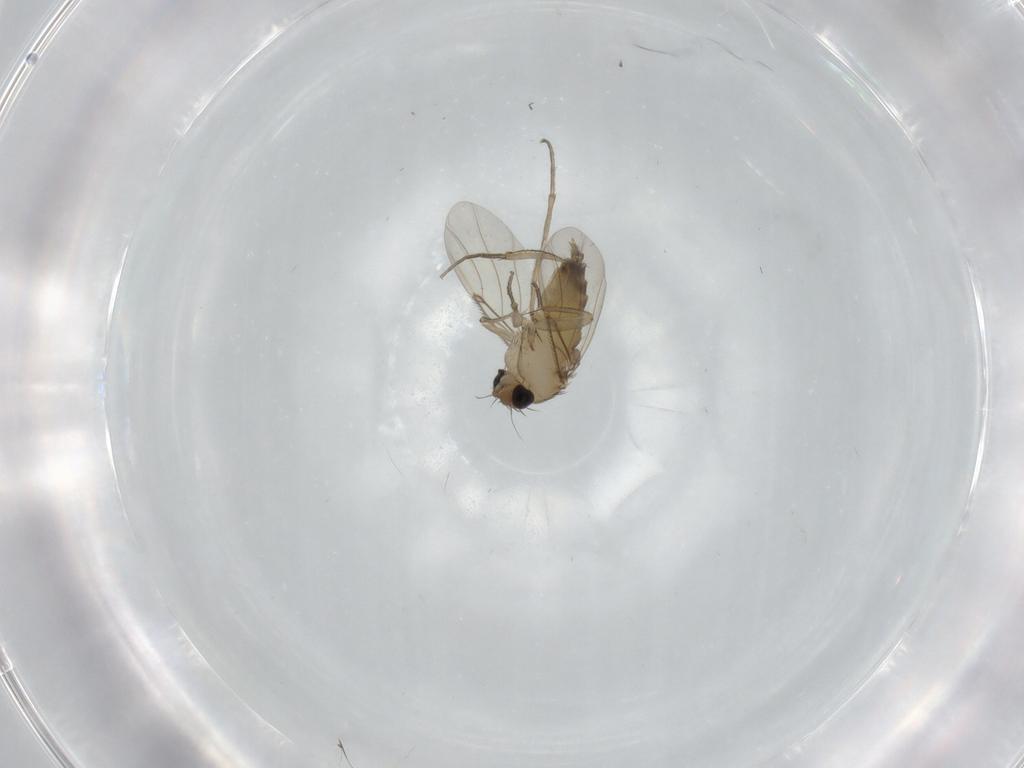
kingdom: Animalia
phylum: Arthropoda
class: Insecta
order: Diptera
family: Phoridae
